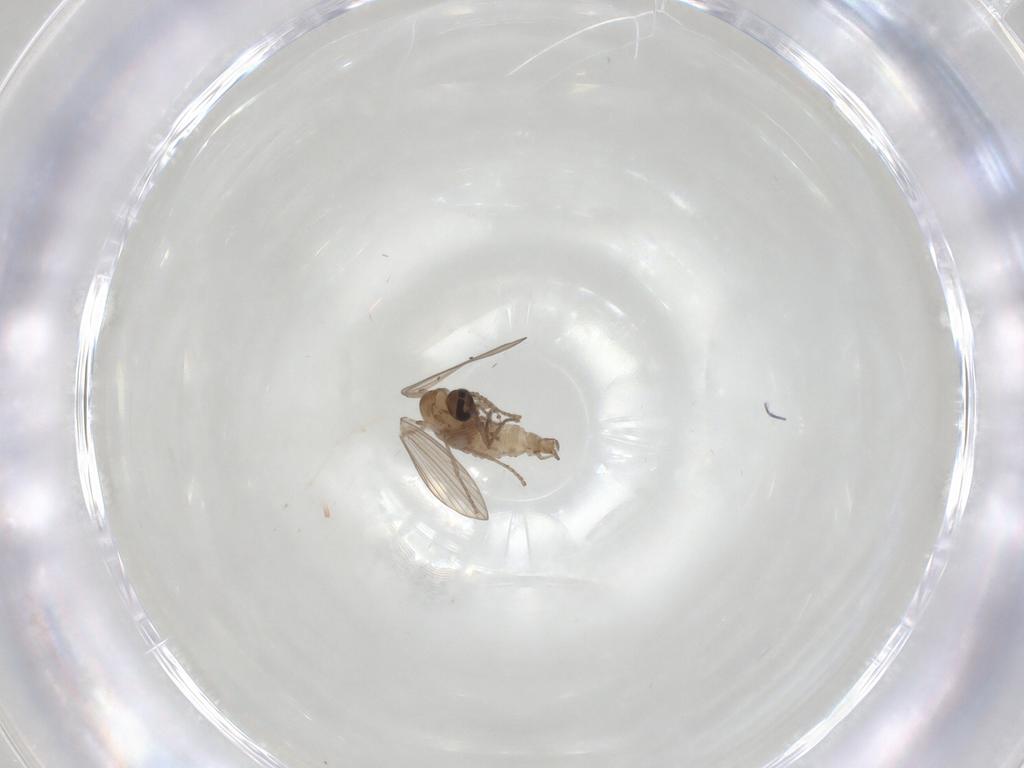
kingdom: Animalia
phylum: Arthropoda
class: Insecta
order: Diptera
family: Psychodidae
